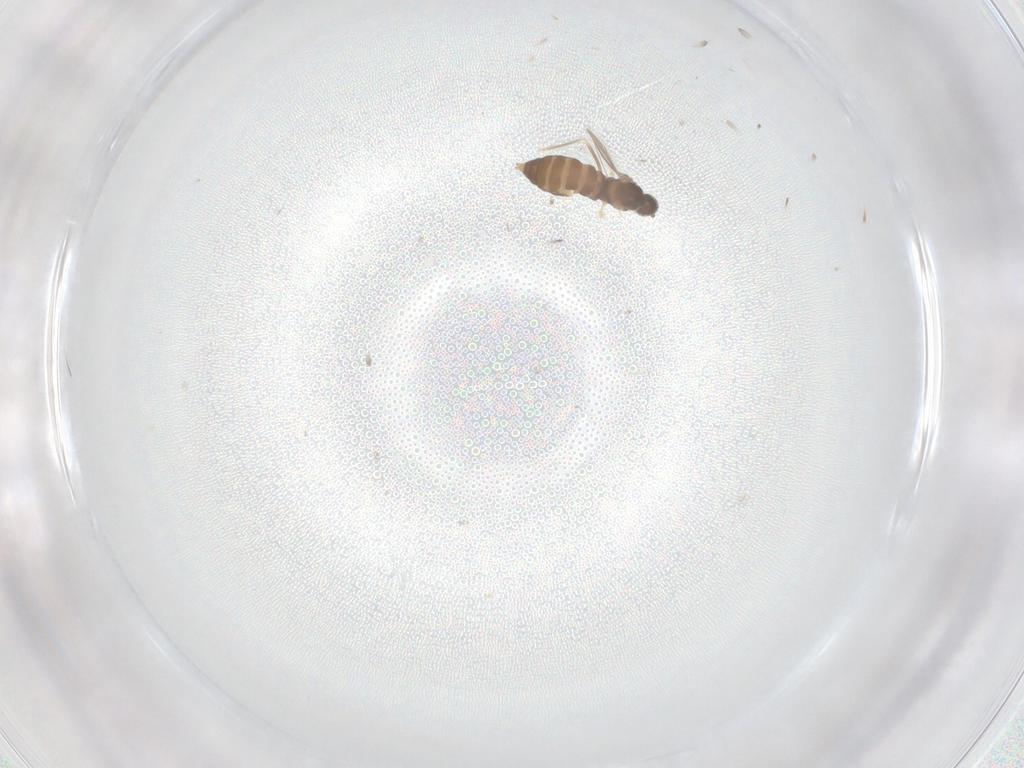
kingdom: Animalia
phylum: Arthropoda
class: Insecta
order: Diptera
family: Cecidomyiidae
